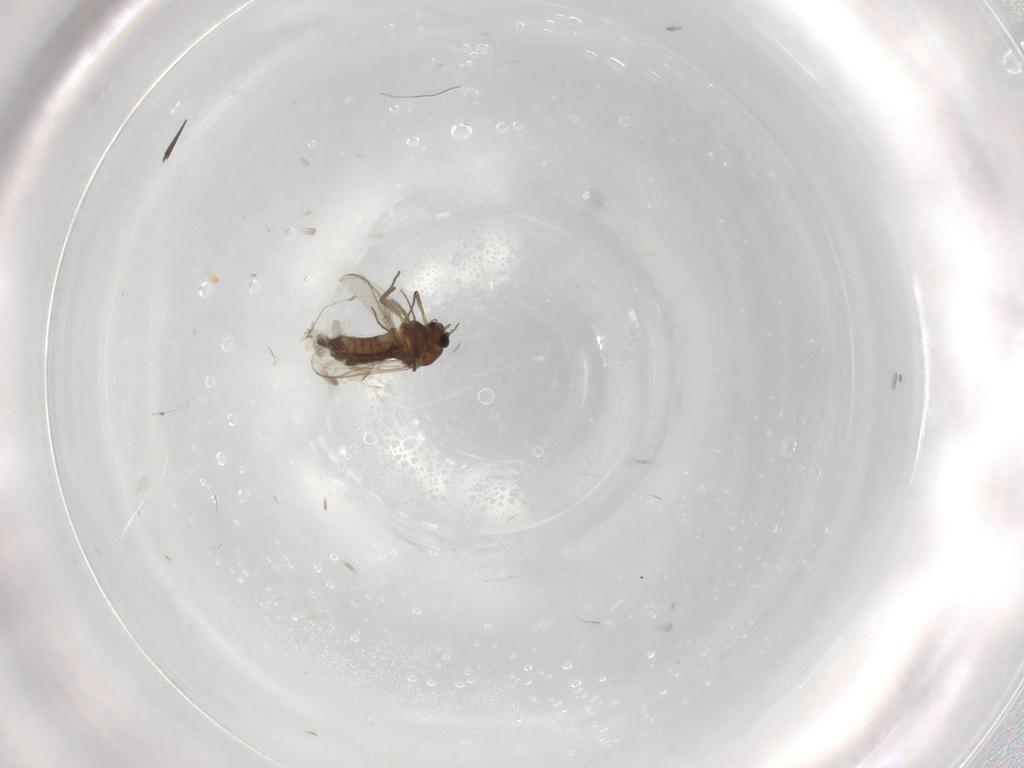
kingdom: Animalia
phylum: Arthropoda
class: Insecta
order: Diptera
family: Chironomidae
